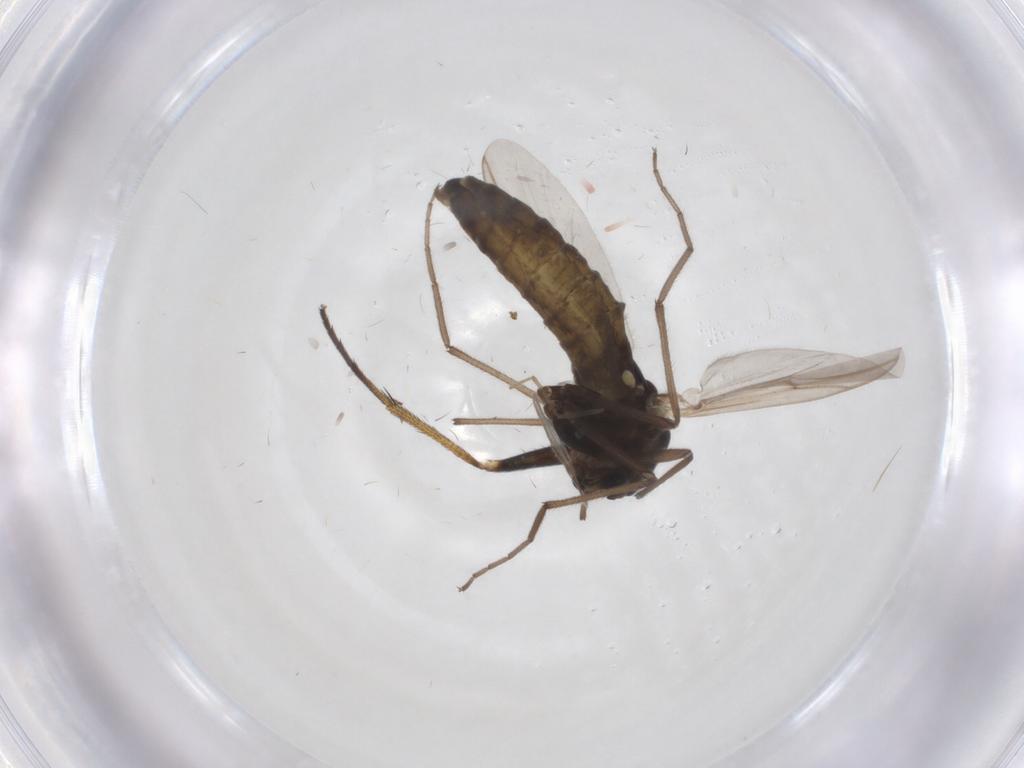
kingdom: Animalia
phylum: Arthropoda
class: Insecta
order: Diptera
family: Chironomidae
